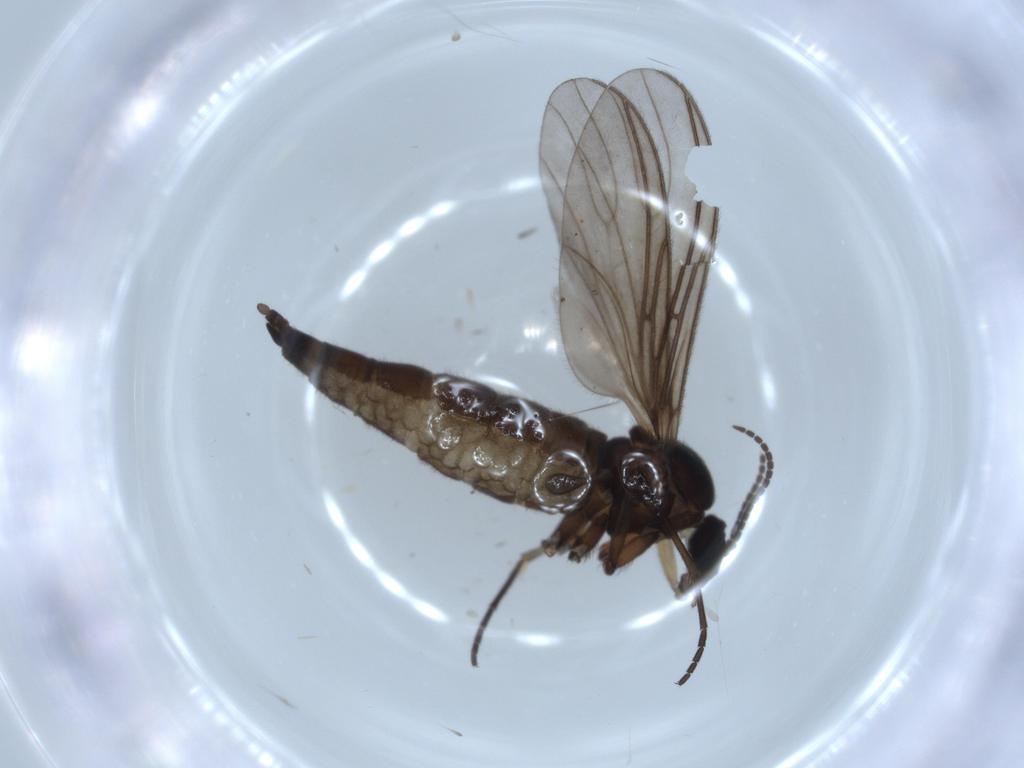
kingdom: Animalia
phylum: Arthropoda
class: Insecta
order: Diptera
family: Sciaridae
